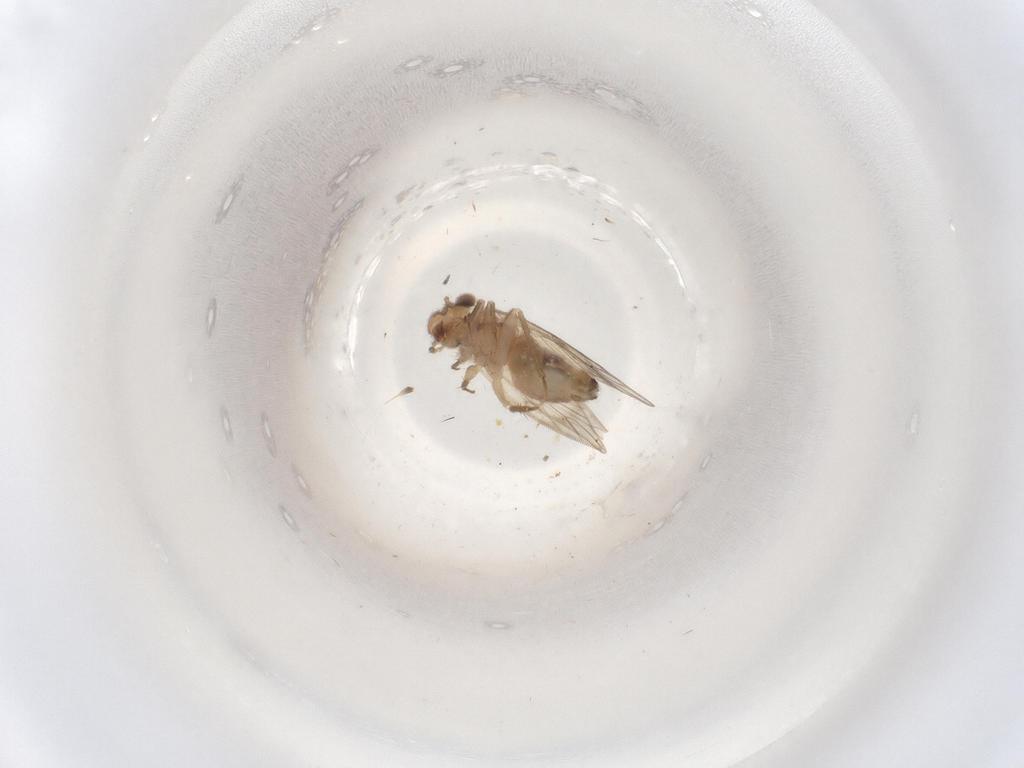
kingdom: Animalia
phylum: Arthropoda
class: Insecta
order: Psocodea
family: Lepidopsocidae
